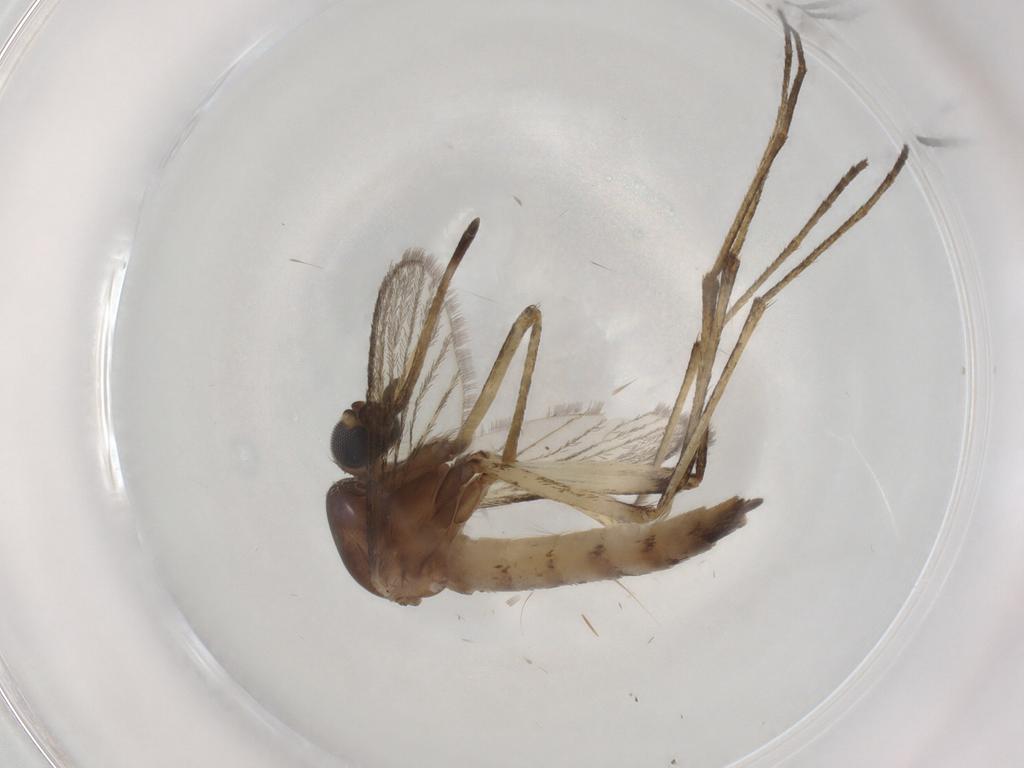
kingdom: Animalia
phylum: Arthropoda
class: Insecta
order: Diptera
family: Culicidae
